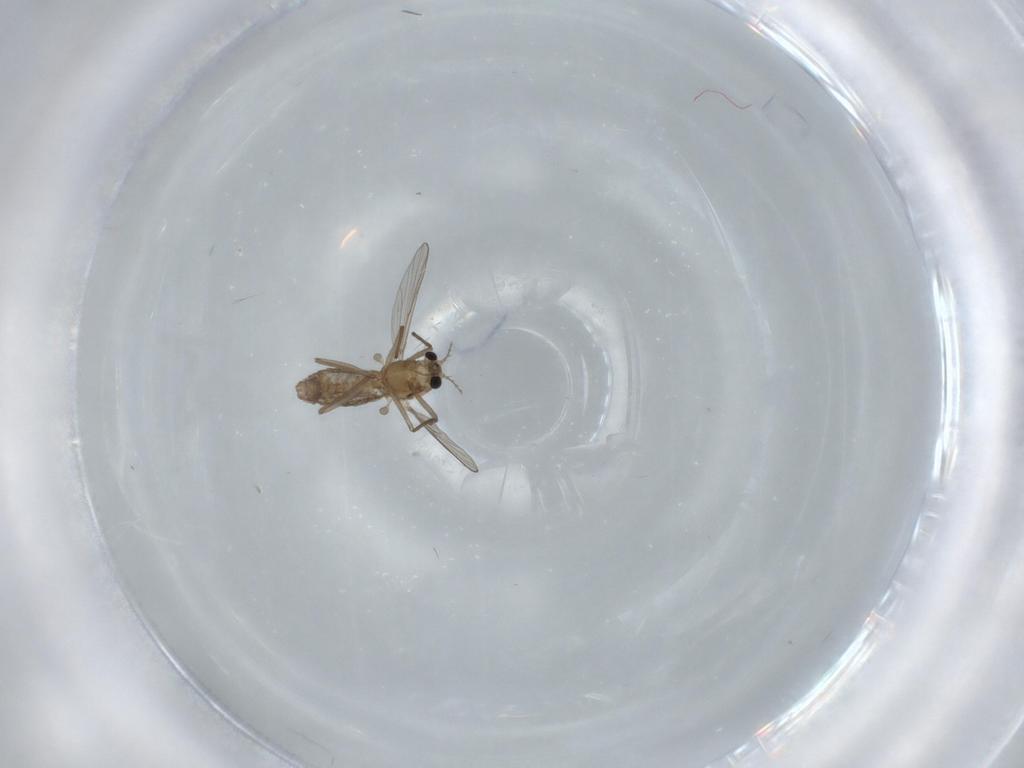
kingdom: Animalia
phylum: Arthropoda
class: Insecta
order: Diptera
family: Chironomidae
